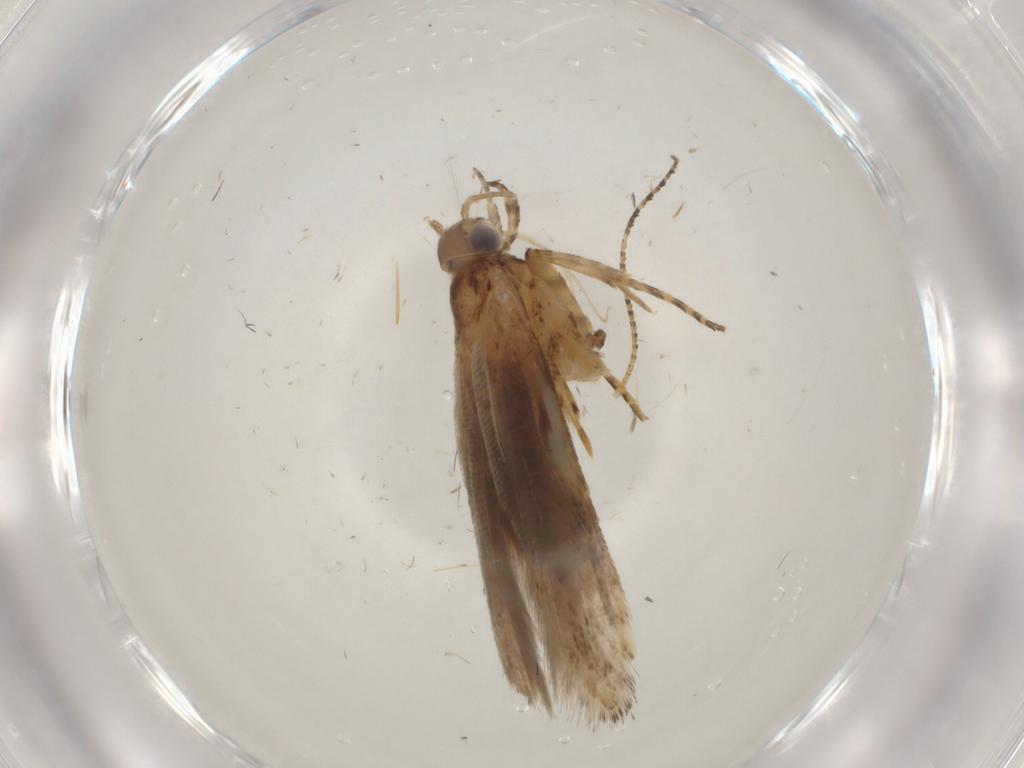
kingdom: Animalia
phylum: Arthropoda
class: Insecta
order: Lepidoptera
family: Gelechiidae
